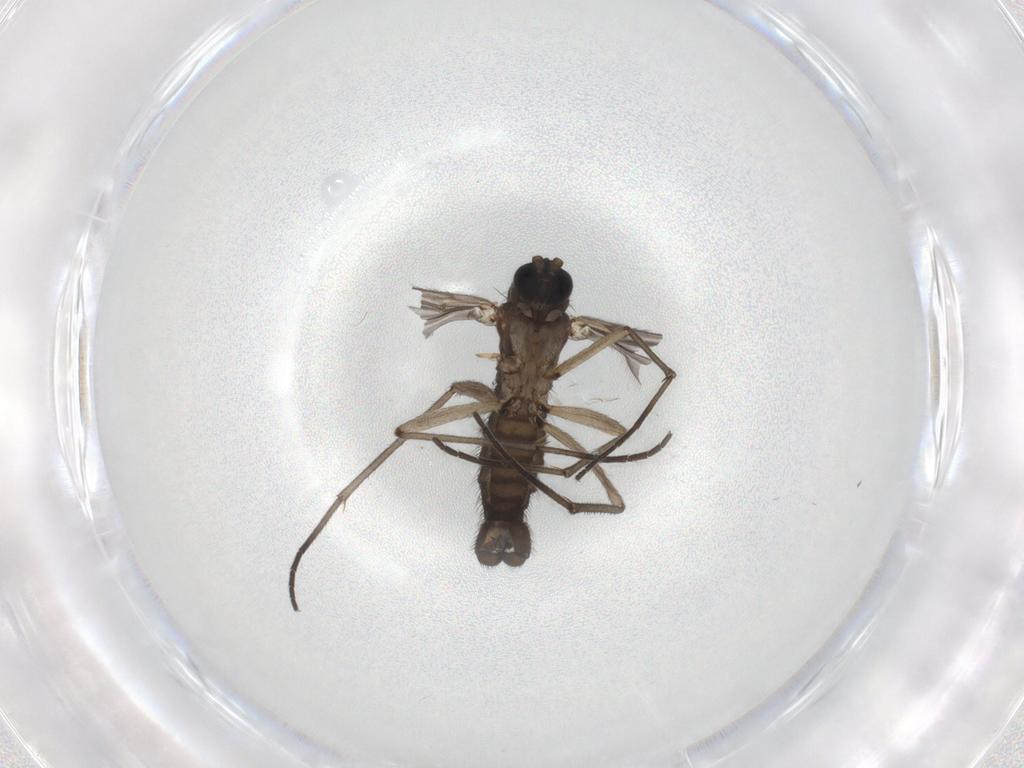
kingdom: Animalia
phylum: Arthropoda
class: Insecta
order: Diptera
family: Sciaridae
